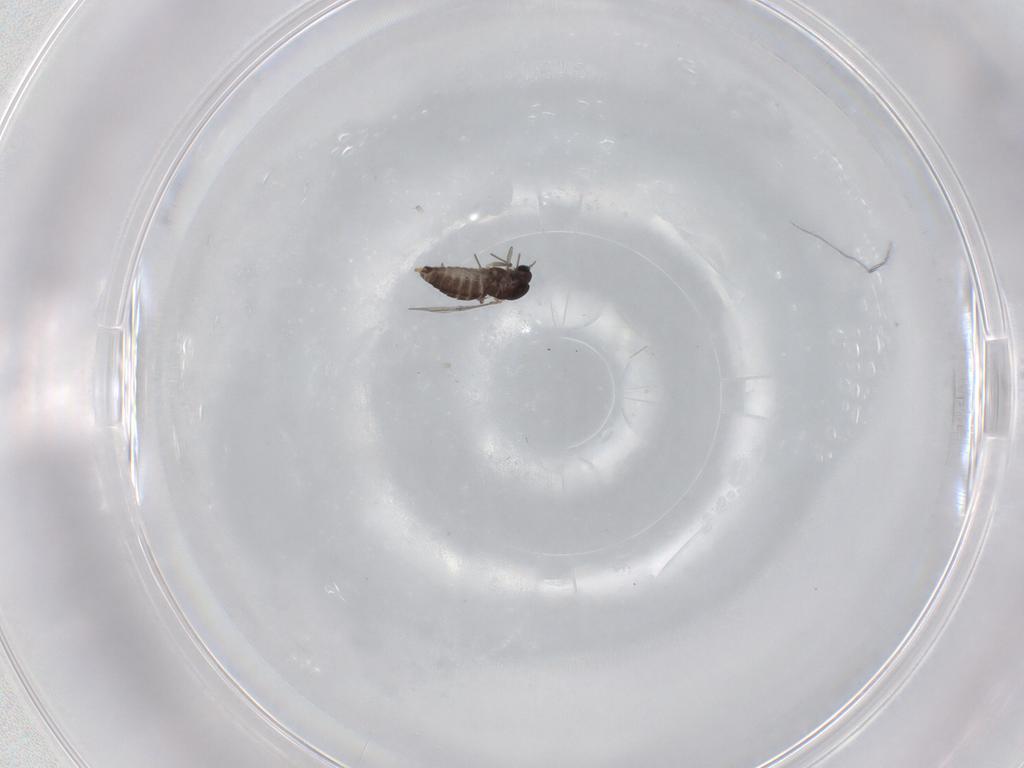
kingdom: Animalia
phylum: Arthropoda
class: Insecta
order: Diptera
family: Chironomidae
